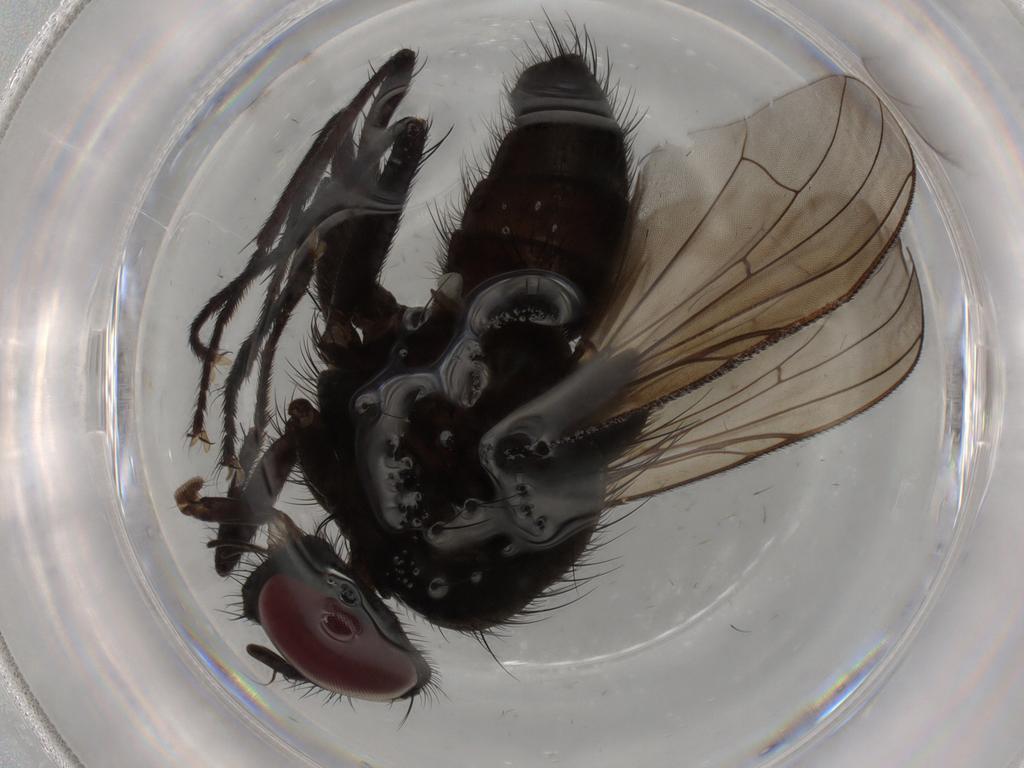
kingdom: Animalia
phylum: Arthropoda
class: Insecta
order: Diptera
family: Muscidae
